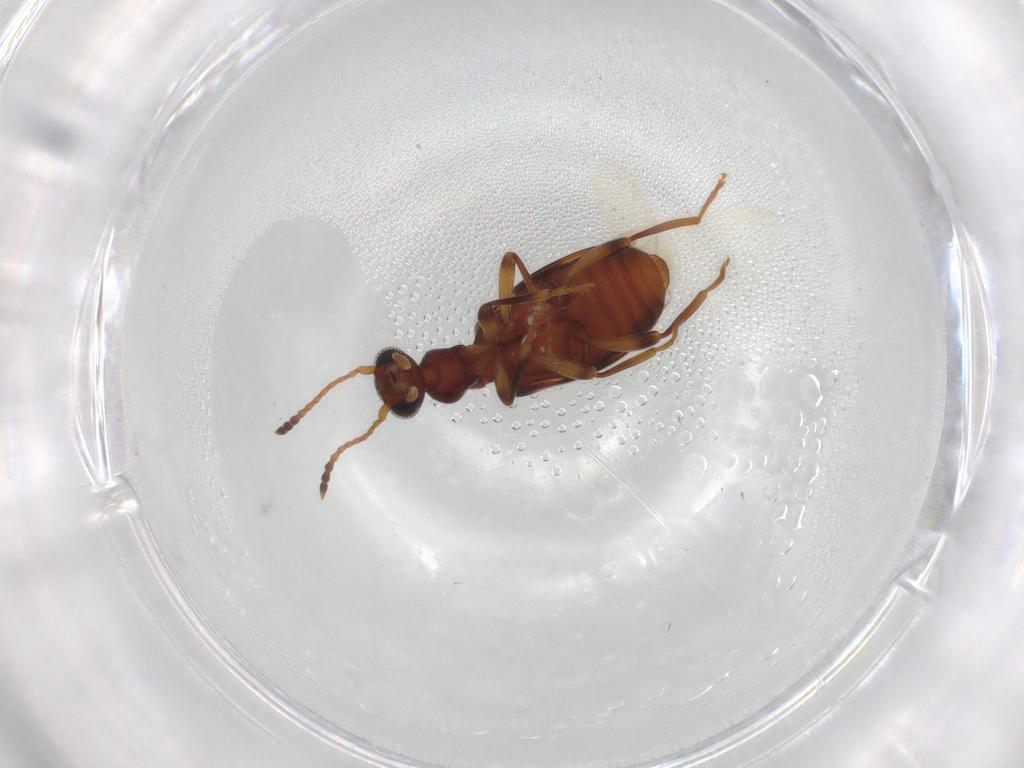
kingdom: Animalia
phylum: Arthropoda
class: Insecta
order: Coleoptera
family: Anthicidae
